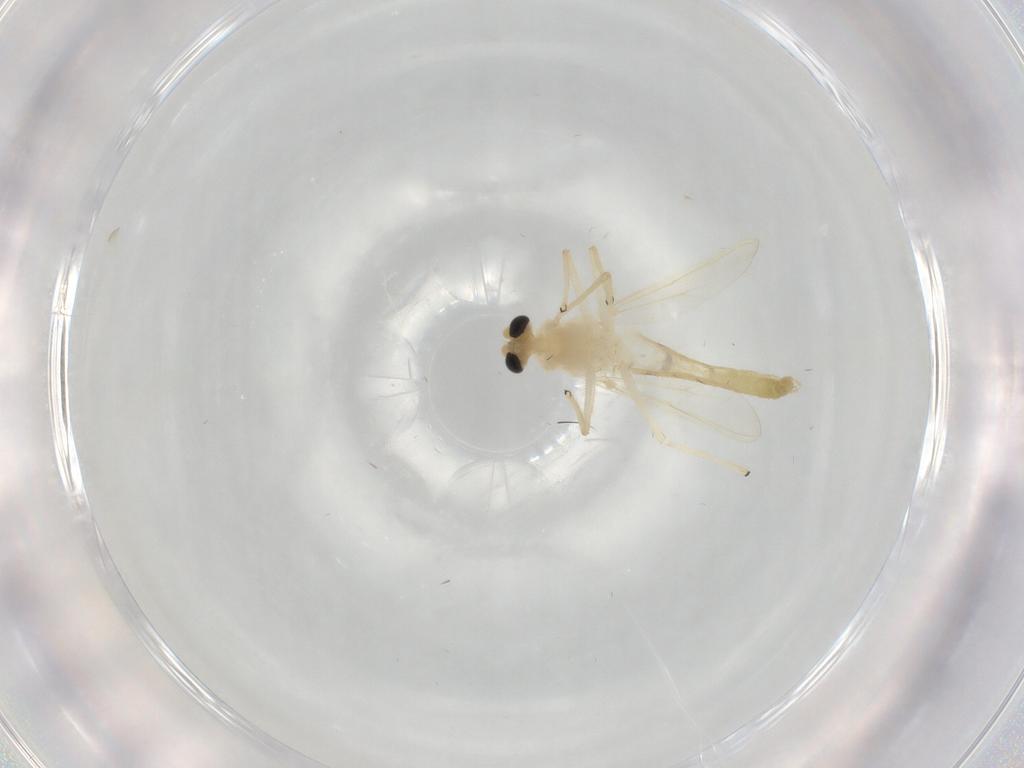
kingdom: Animalia
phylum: Arthropoda
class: Insecta
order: Diptera
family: Chironomidae
